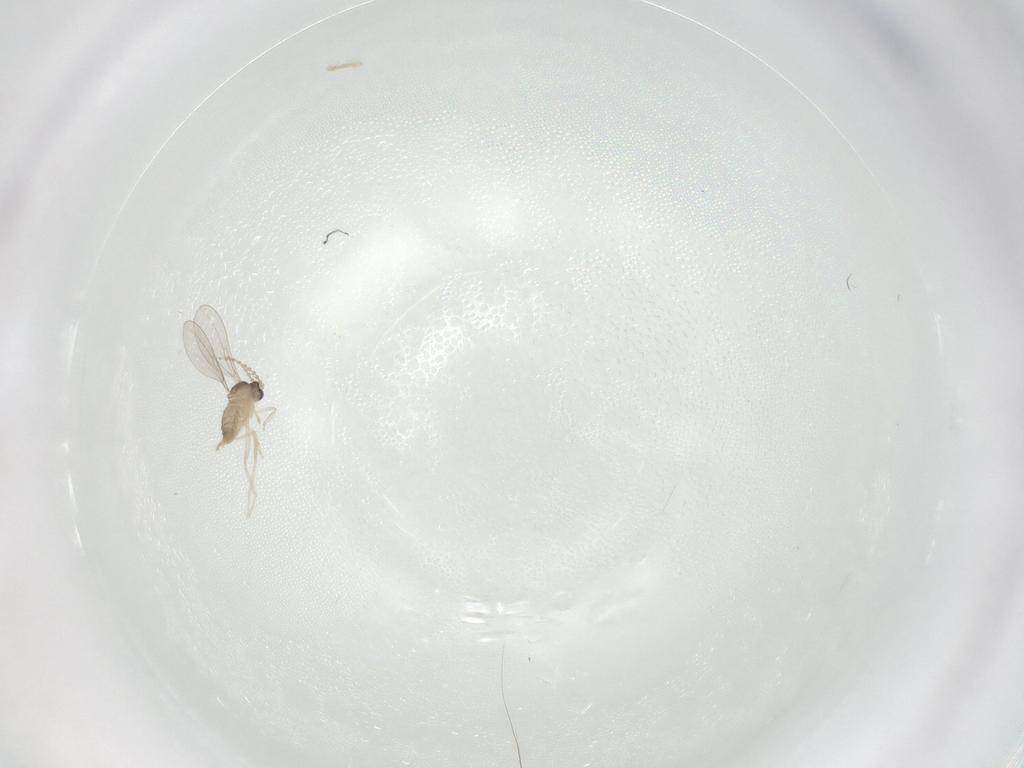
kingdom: Animalia
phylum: Arthropoda
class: Insecta
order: Diptera
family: Cecidomyiidae
